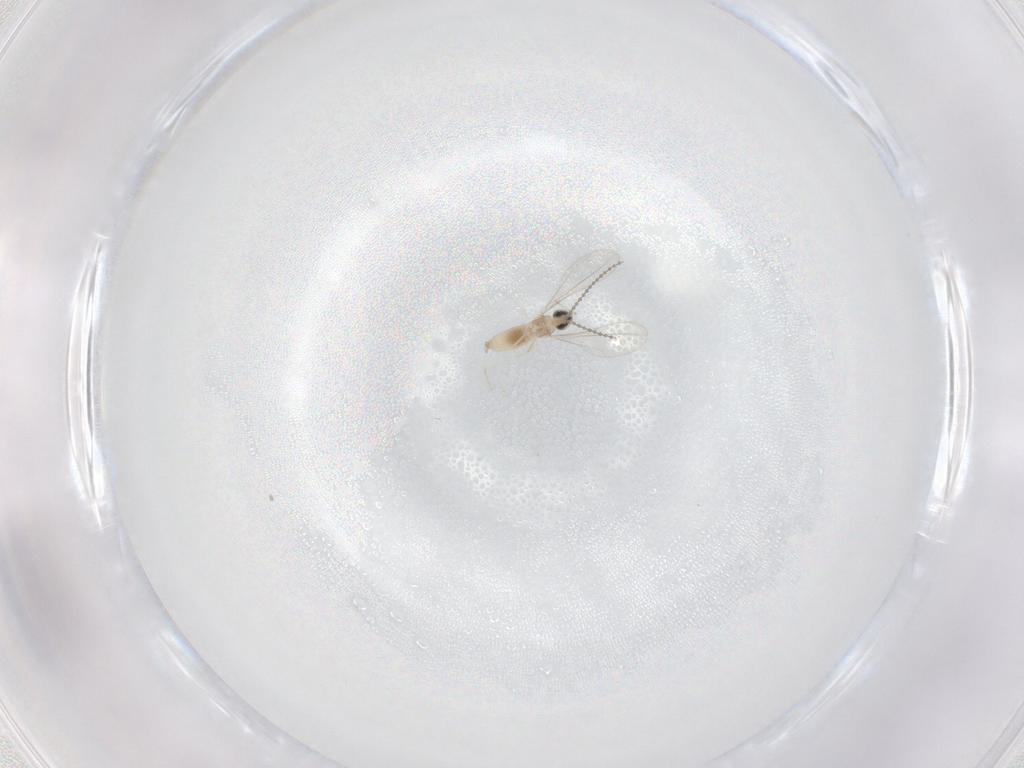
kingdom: Animalia
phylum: Arthropoda
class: Insecta
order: Diptera
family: Cecidomyiidae
